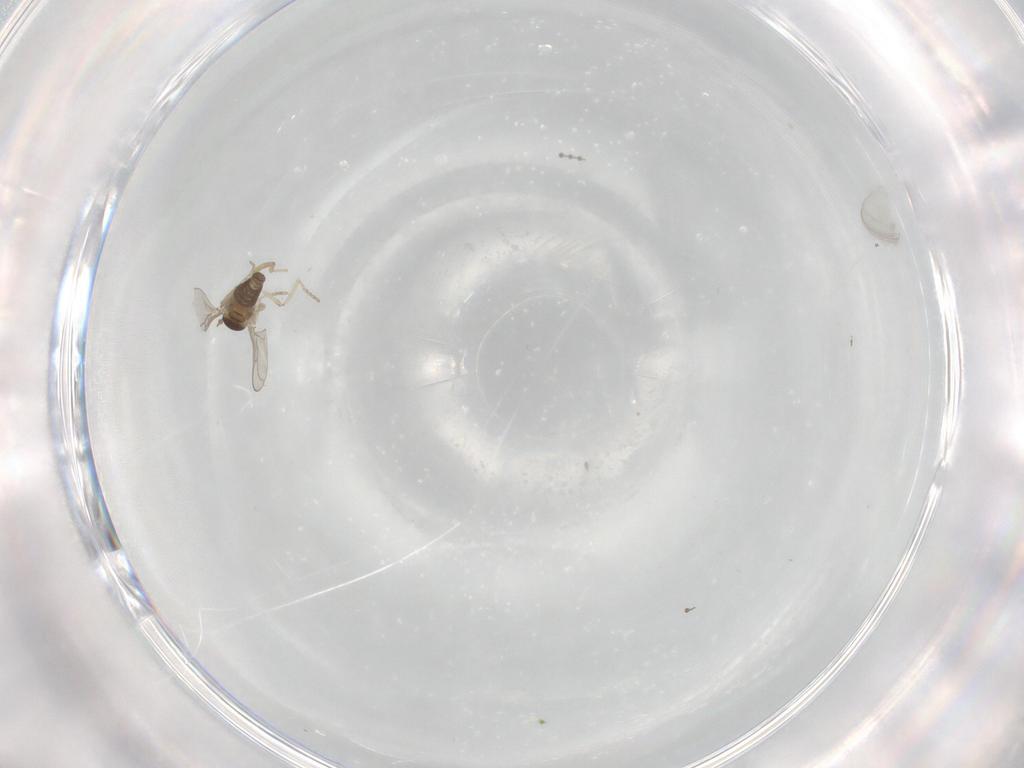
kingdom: Animalia
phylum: Arthropoda
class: Insecta
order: Diptera
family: Cecidomyiidae
